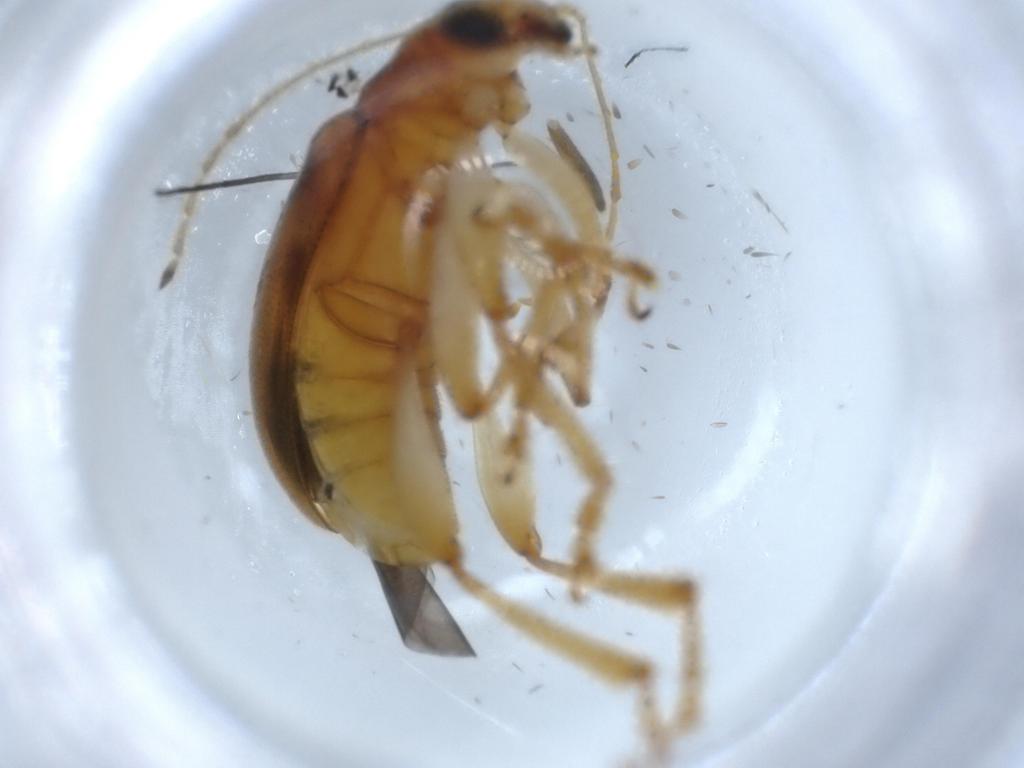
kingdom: Animalia
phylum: Arthropoda
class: Insecta
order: Coleoptera
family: Chrysomelidae
